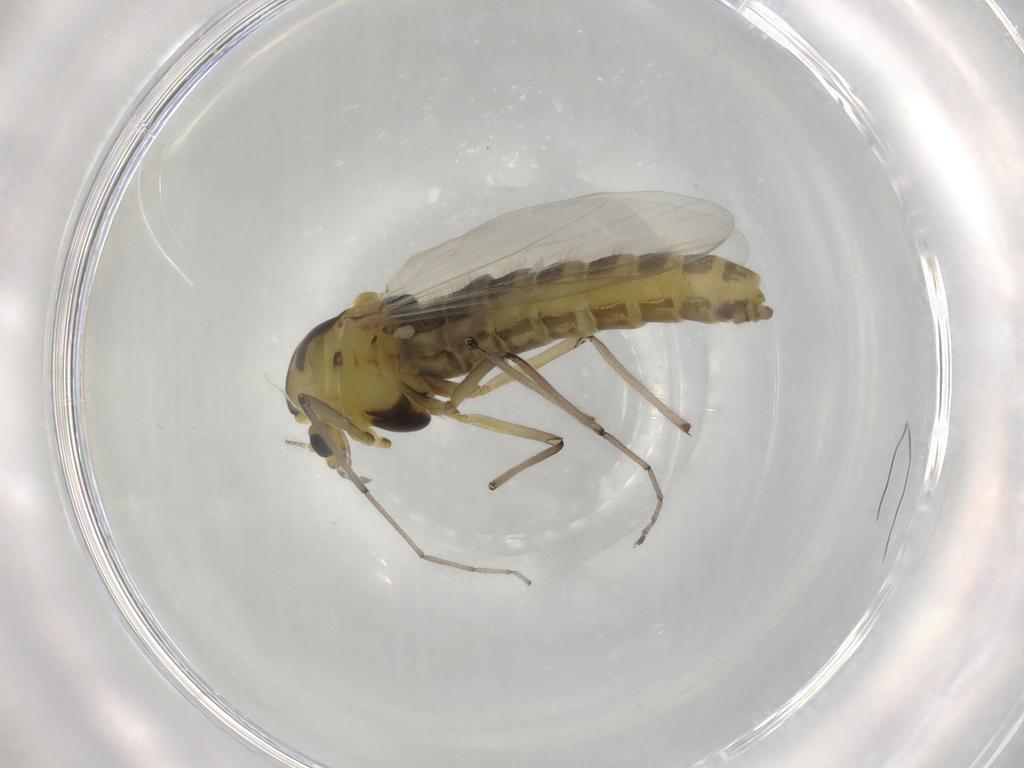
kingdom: Animalia
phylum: Arthropoda
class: Insecta
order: Diptera
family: Chironomidae
